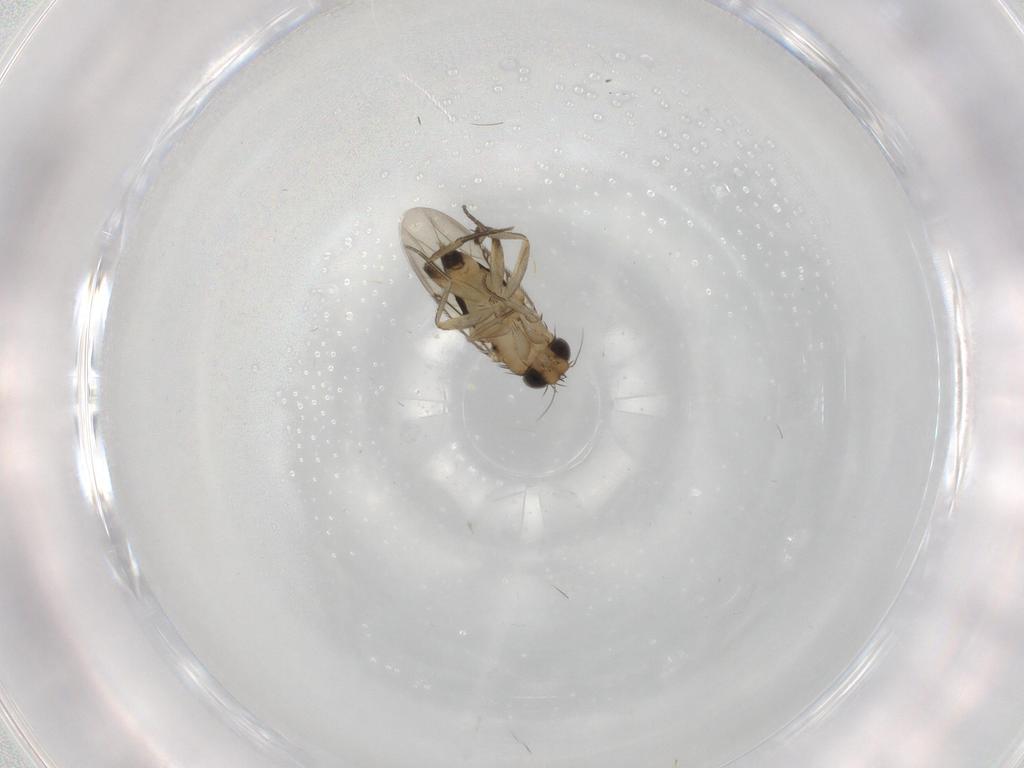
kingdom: Animalia
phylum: Arthropoda
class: Insecta
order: Diptera
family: Phoridae
